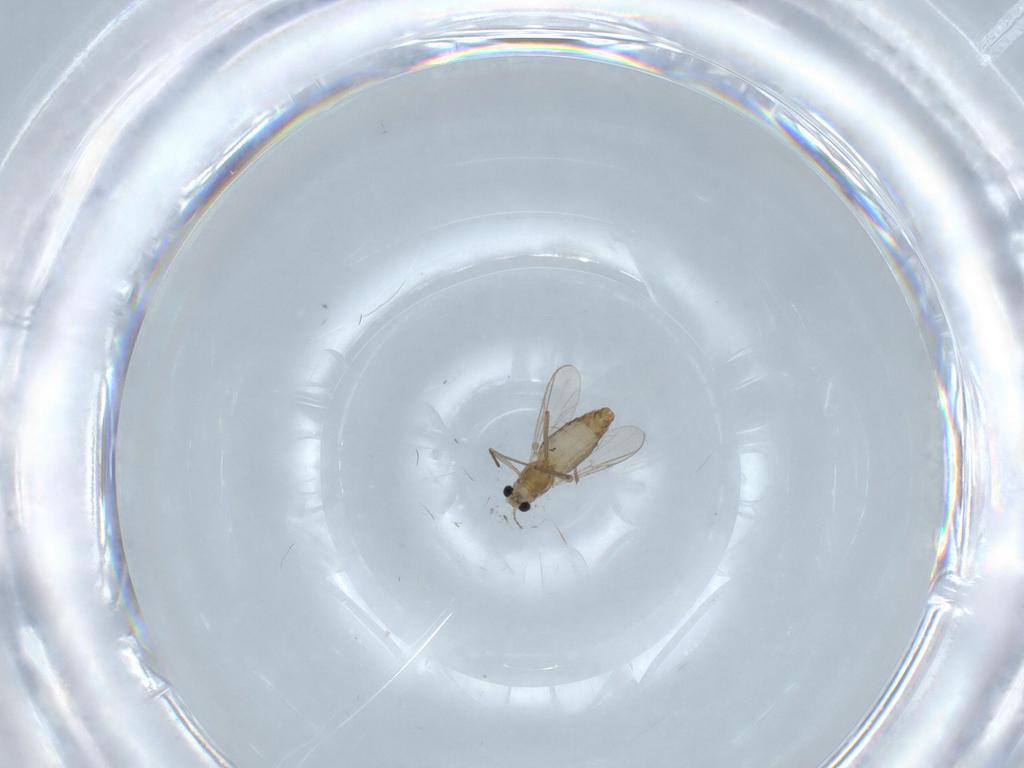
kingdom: Animalia
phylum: Arthropoda
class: Insecta
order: Diptera
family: Chironomidae
